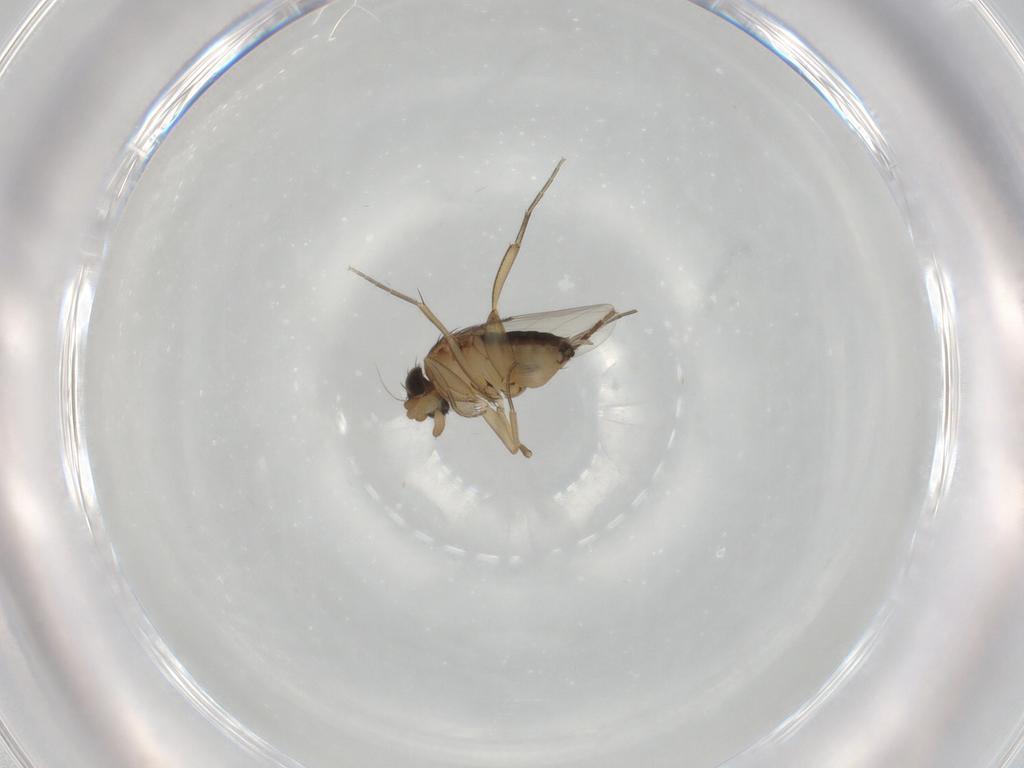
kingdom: Animalia
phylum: Arthropoda
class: Insecta
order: Diptera
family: Chironomidae
